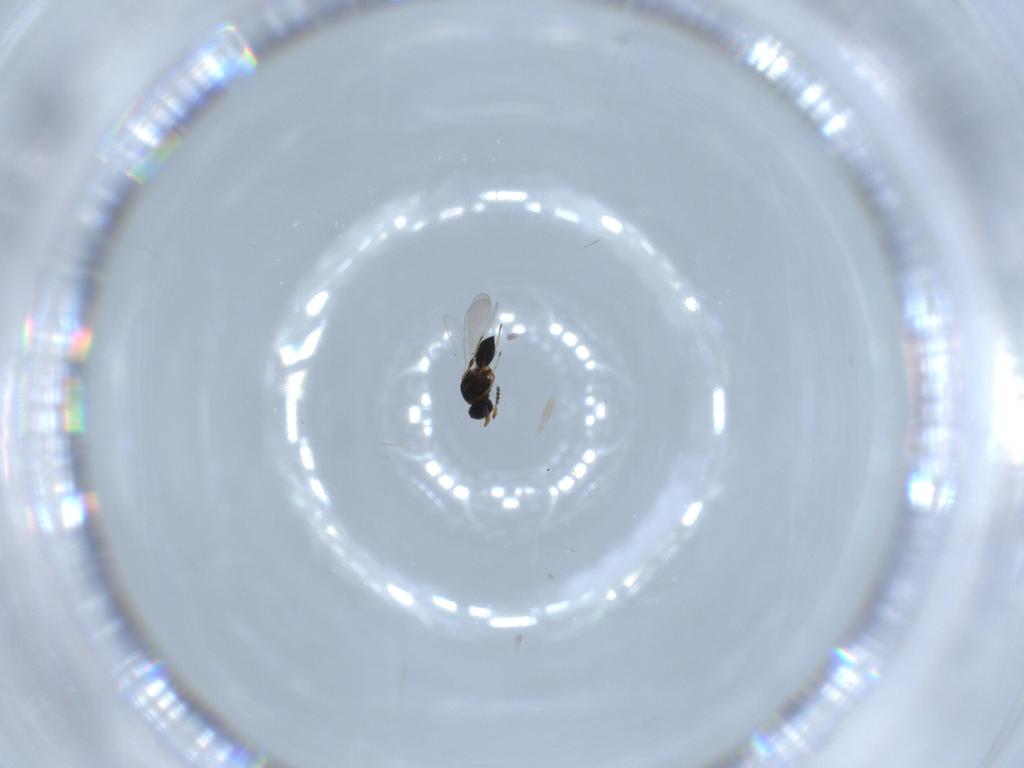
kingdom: Animalia
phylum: Arthropoda
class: Insecta
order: Hymenoptera
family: Platygastridae
